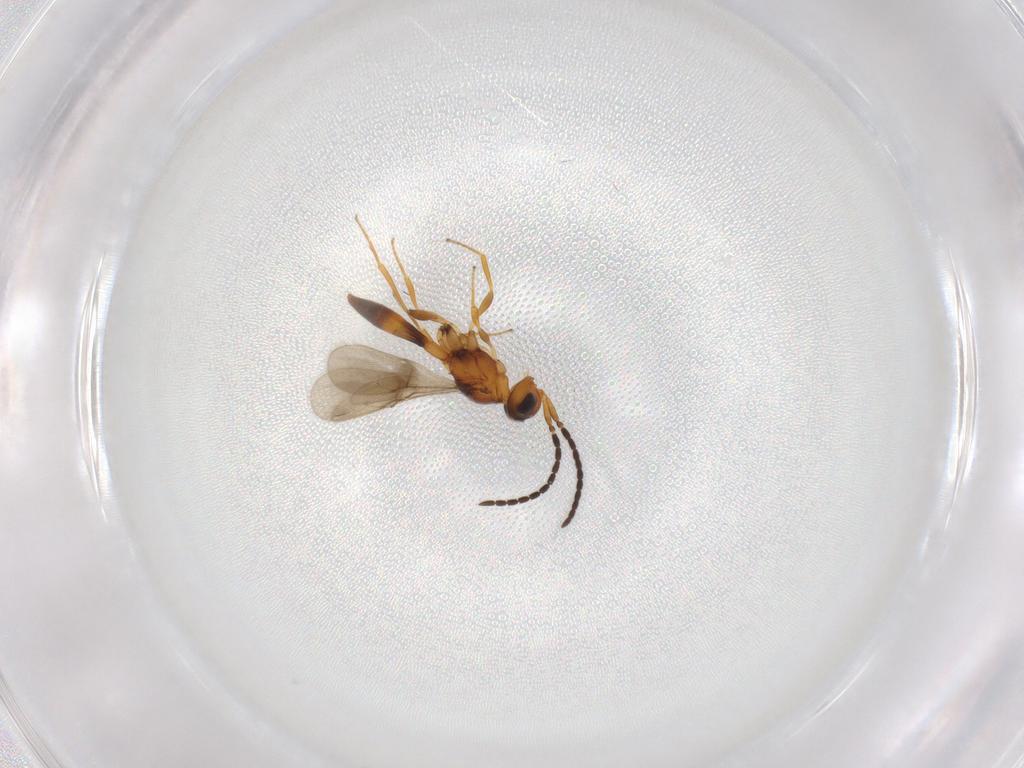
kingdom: Animalia
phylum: Arthropoda
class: Insecta
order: Hymenoptera
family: Scelionidae
